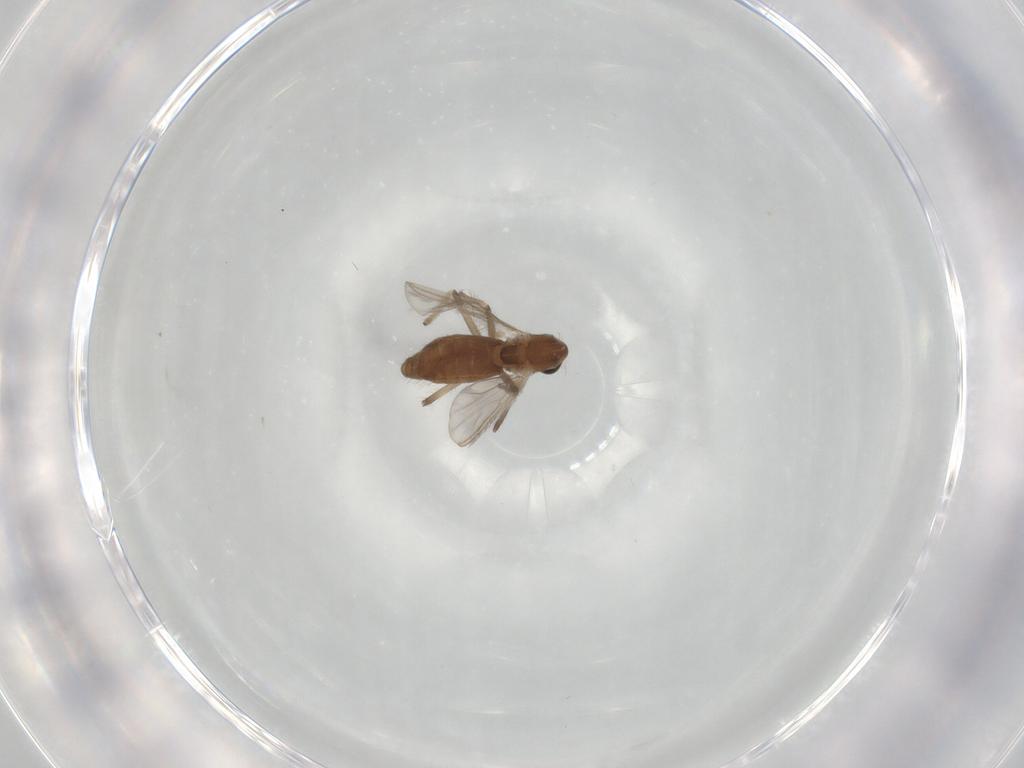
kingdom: Animalia
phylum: Arthropoda
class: Insecta
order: Diptera
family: Chironomidae
